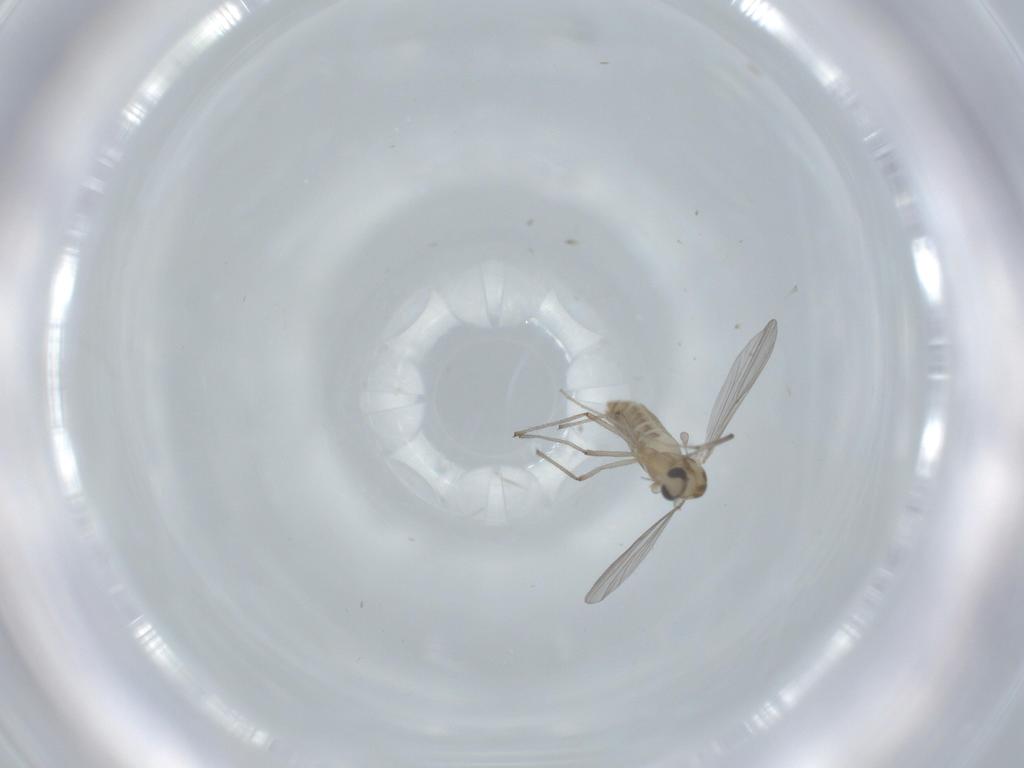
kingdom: Animalia
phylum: Arthropoda
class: Insecta
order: Diptera
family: Chironomidae
